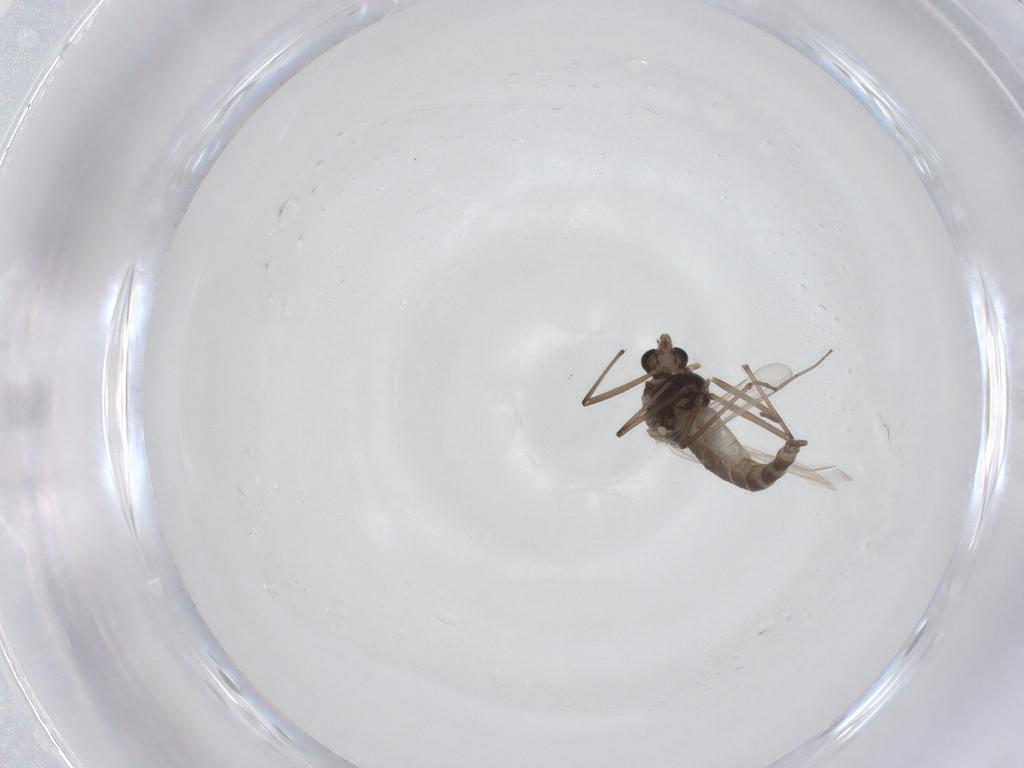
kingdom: Animalia
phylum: Arthropoda
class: Insecta
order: Diptera
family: Chironomidae
